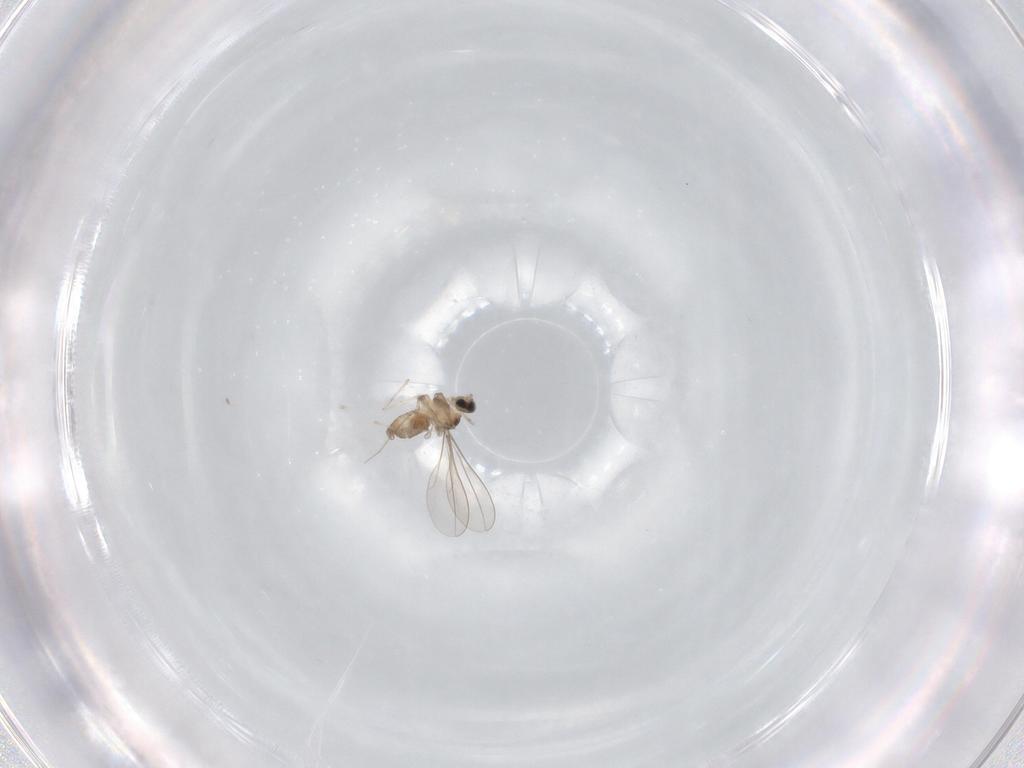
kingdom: Animalia
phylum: Arthropoda
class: Insecta
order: Diptera
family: Cecidomyiidae
